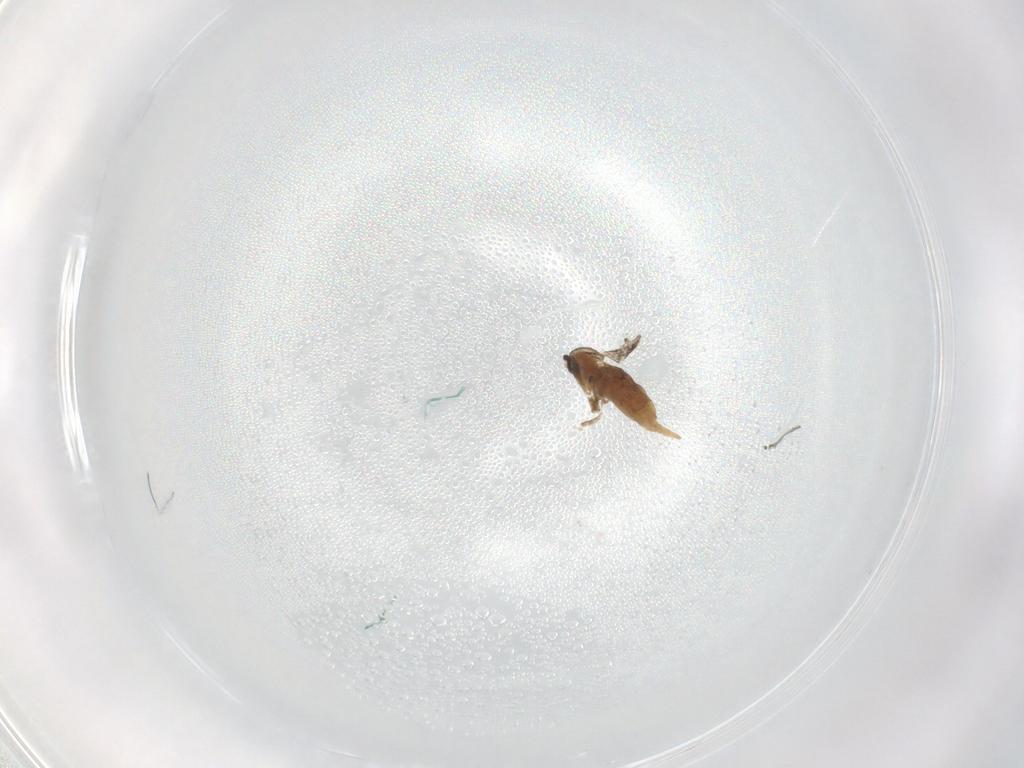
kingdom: Animalia
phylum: Arthropoda
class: Insecta
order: Diptera
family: Cecidomyiidae
